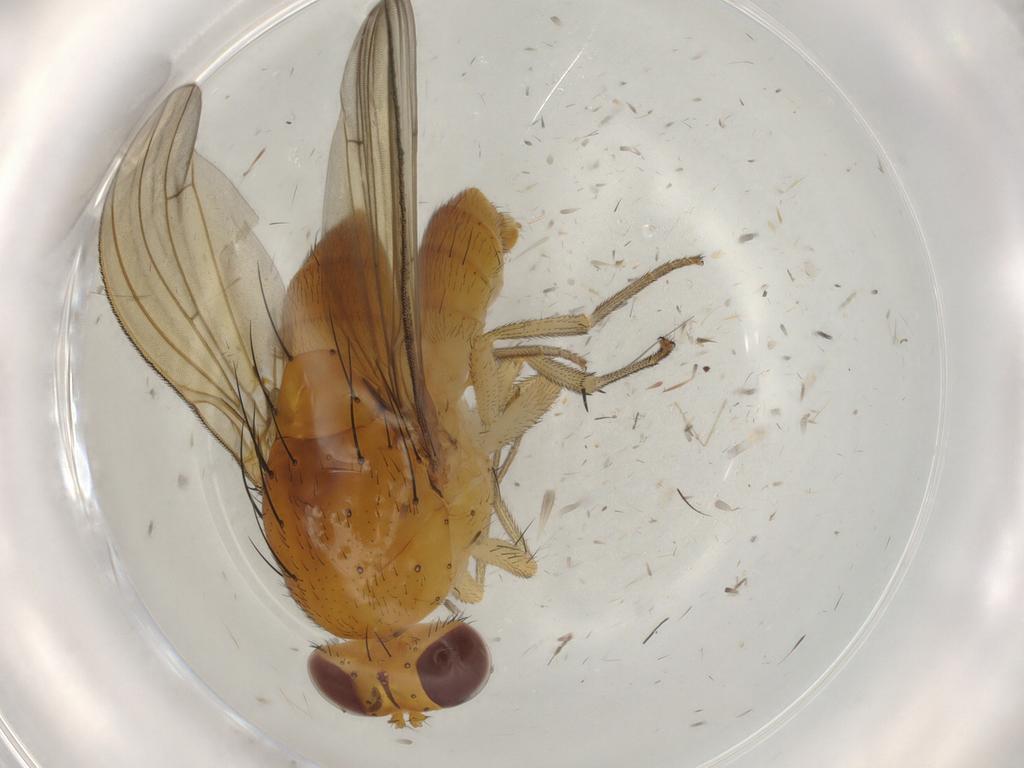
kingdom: Animalia
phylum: Arthropoda
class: Insecta
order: Diptera
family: Cecidomyiidae
